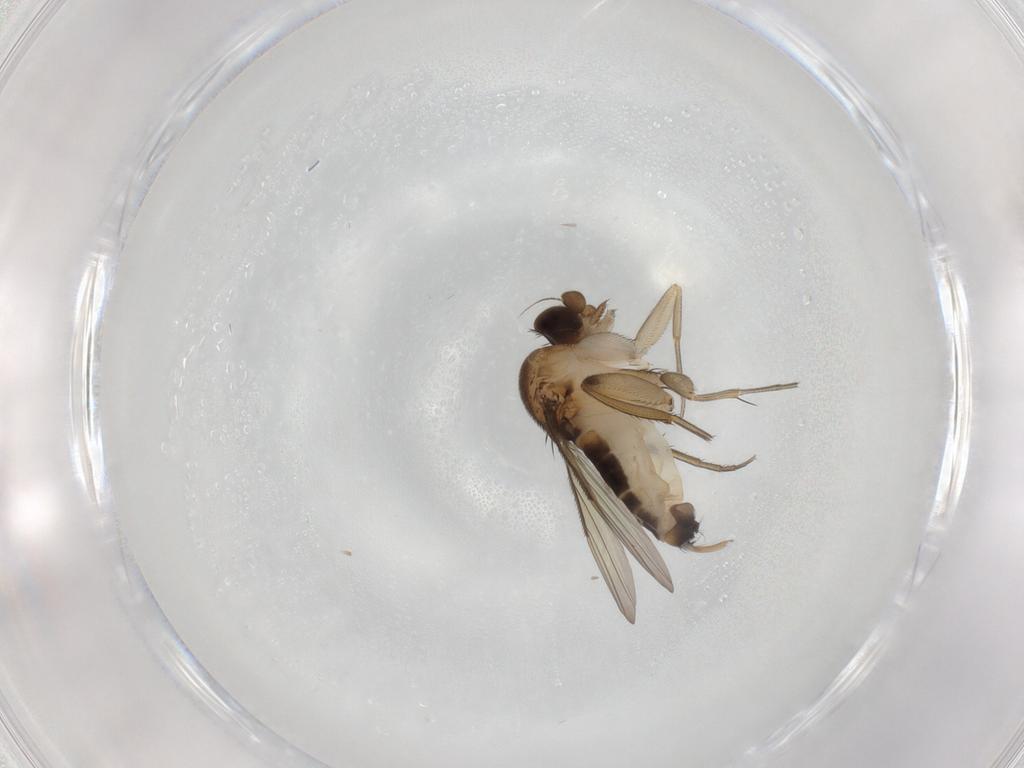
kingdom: Animalia
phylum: Arthropoda
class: Insecta
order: Diptera
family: Phoridae
